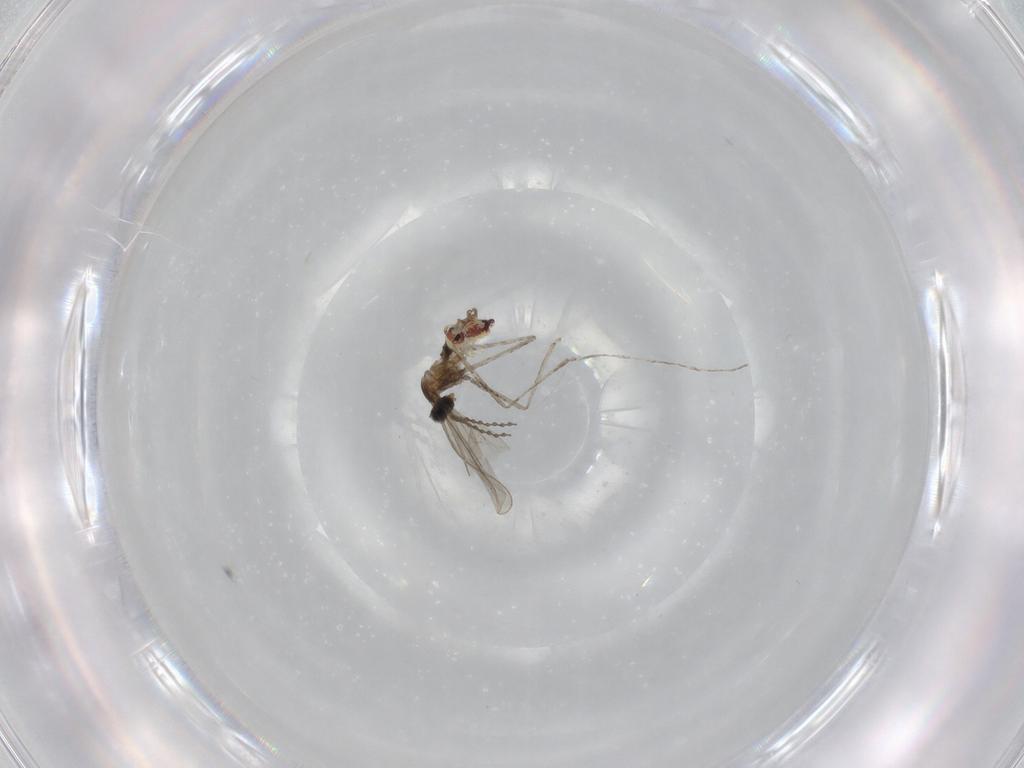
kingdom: Animalia
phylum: Arthropoda
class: Insecta
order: Diptera
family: Cecidomyiidae
